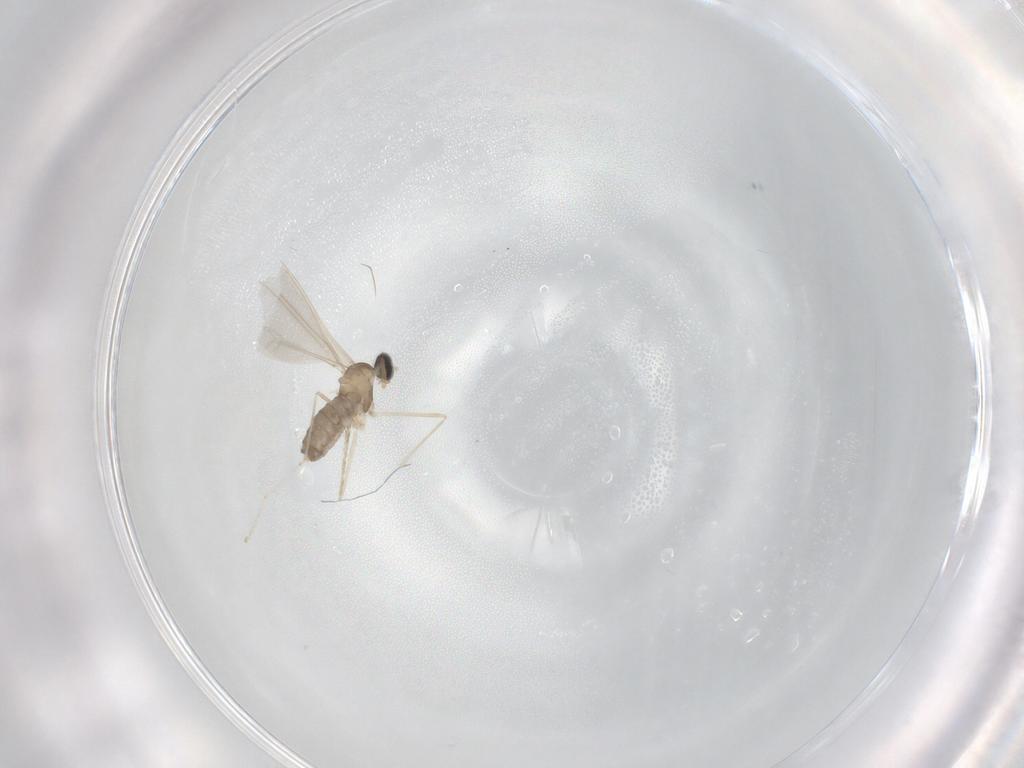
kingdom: Animalia
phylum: Arthropoda
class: Insecta
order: Diptera
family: Cecidomyiidae
